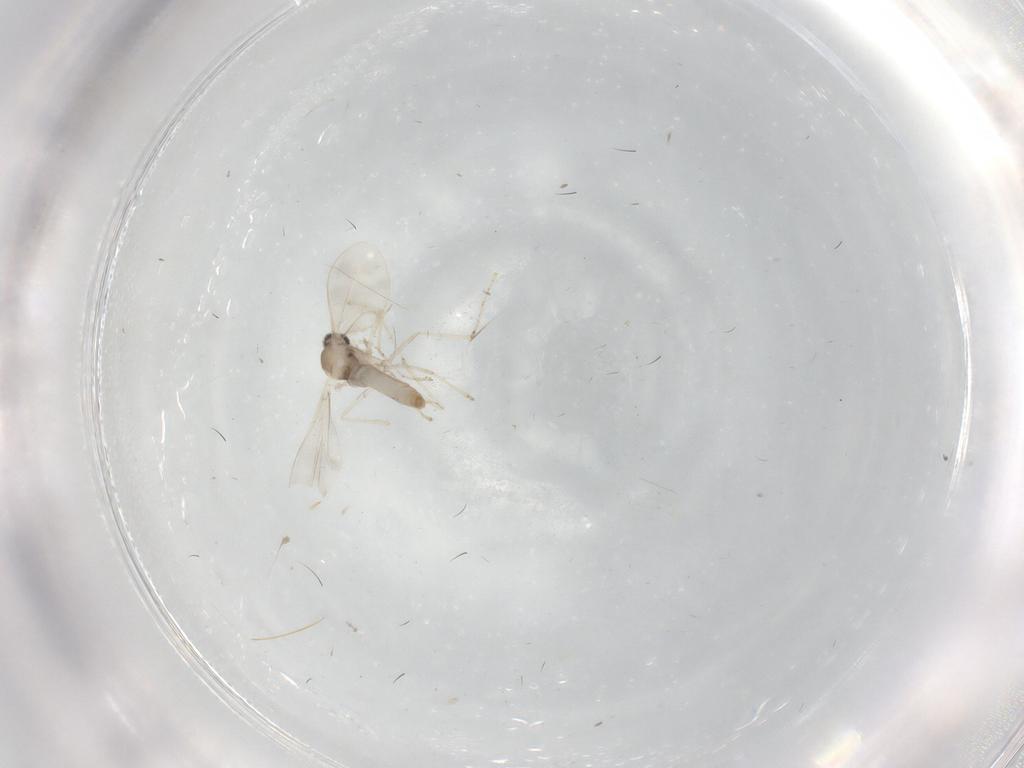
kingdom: Animalia
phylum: Arthropoda
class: Insecta
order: Diptera
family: Cecidomyiidae
